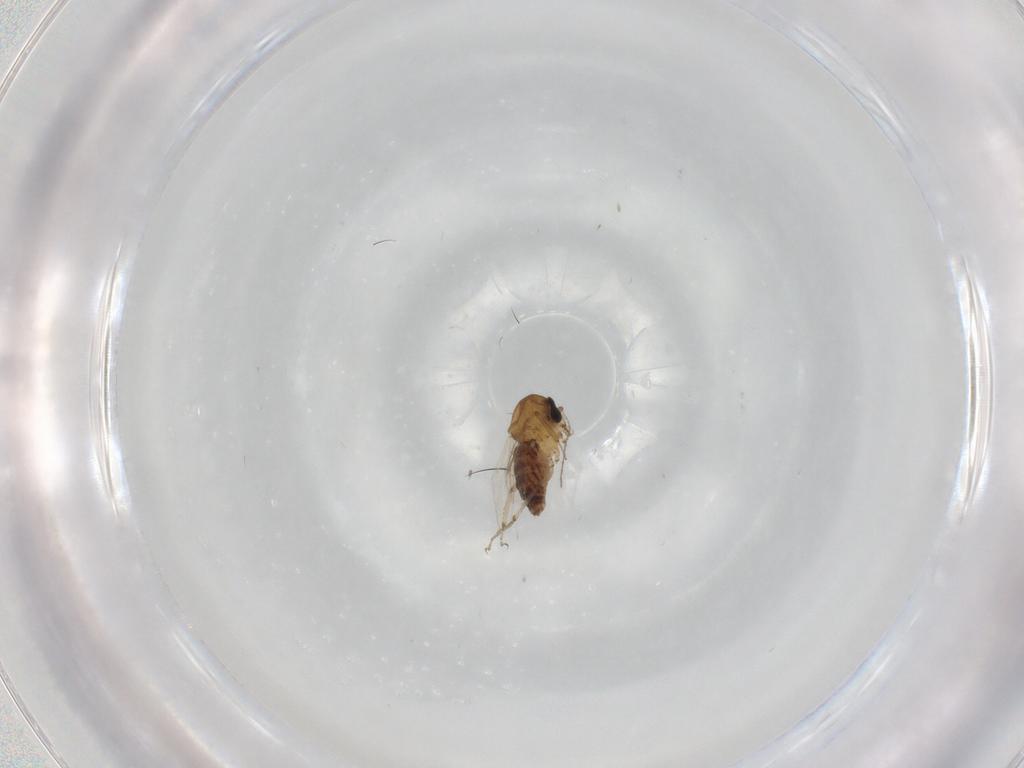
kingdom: Animalia
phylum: Arthropoda
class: Insecta
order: Diptera
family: Ceratopogonidae
